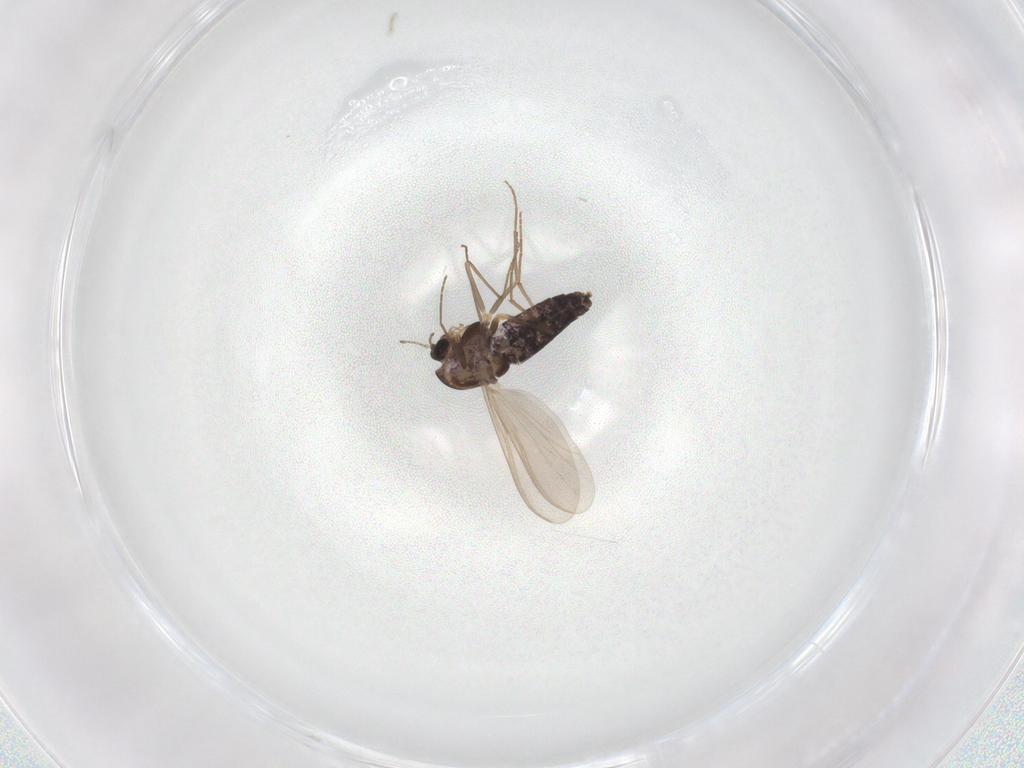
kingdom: Animalia
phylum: Arthropoda
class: Insecta
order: Diptera
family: Chironomidae
